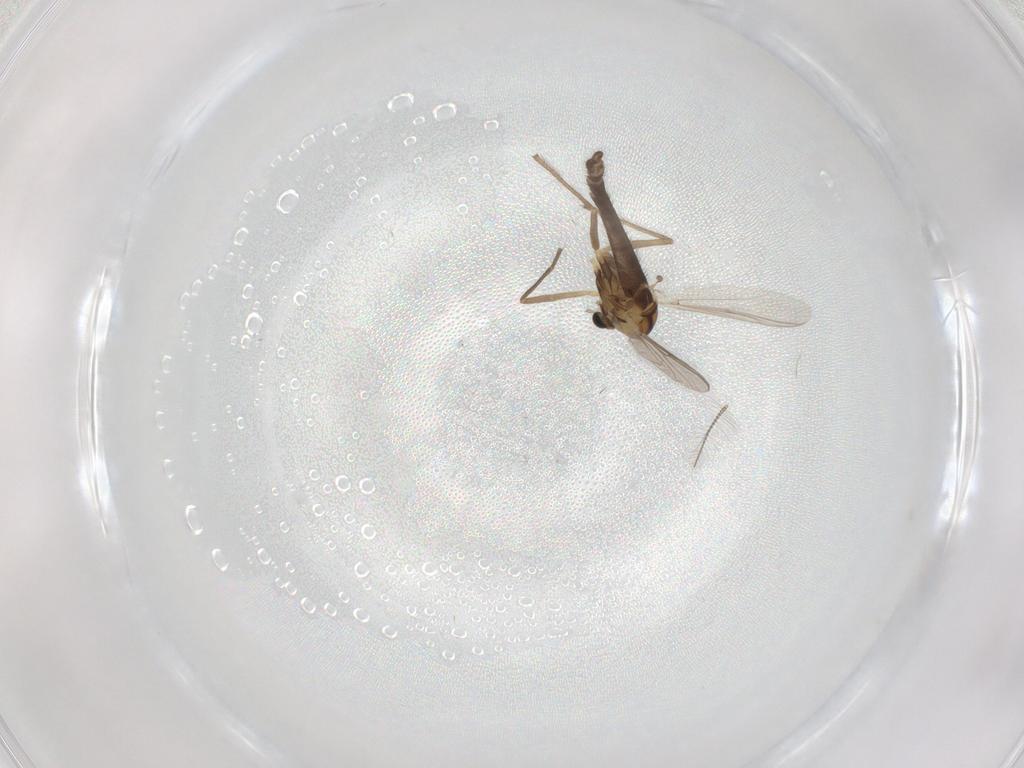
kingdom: Animalia
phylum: Arthropoda
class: Insecta
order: Diptera
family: Chironomidae
